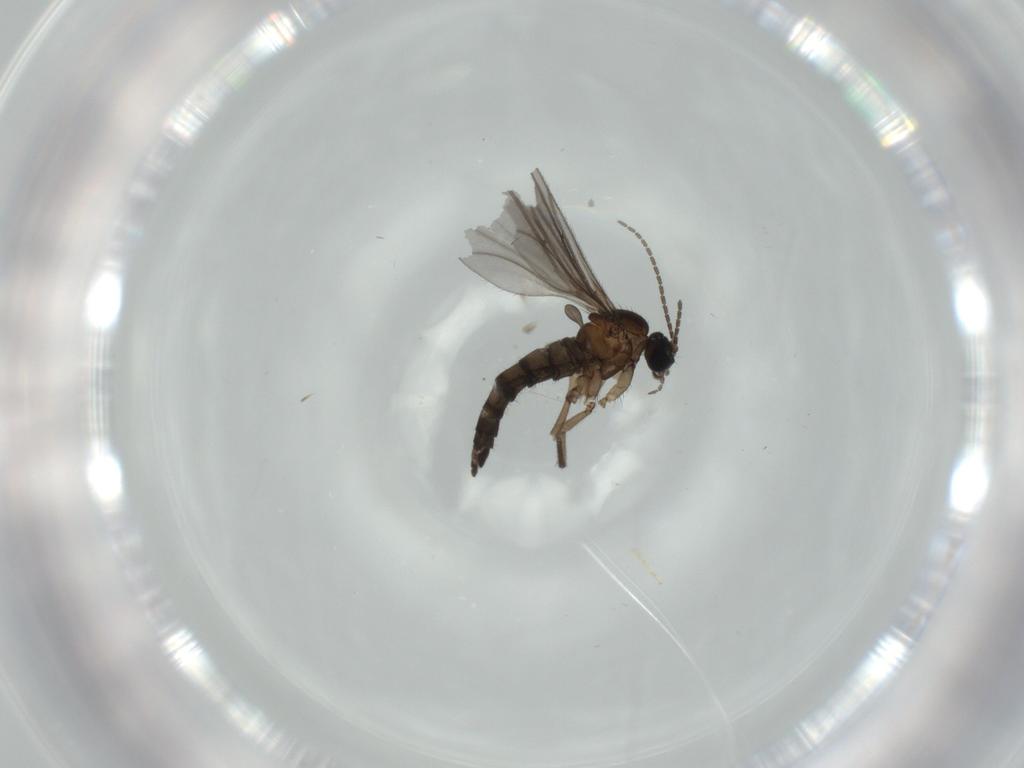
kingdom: Animalia
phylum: Arthropoda
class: Insecta
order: Diptera
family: Sciaridae
